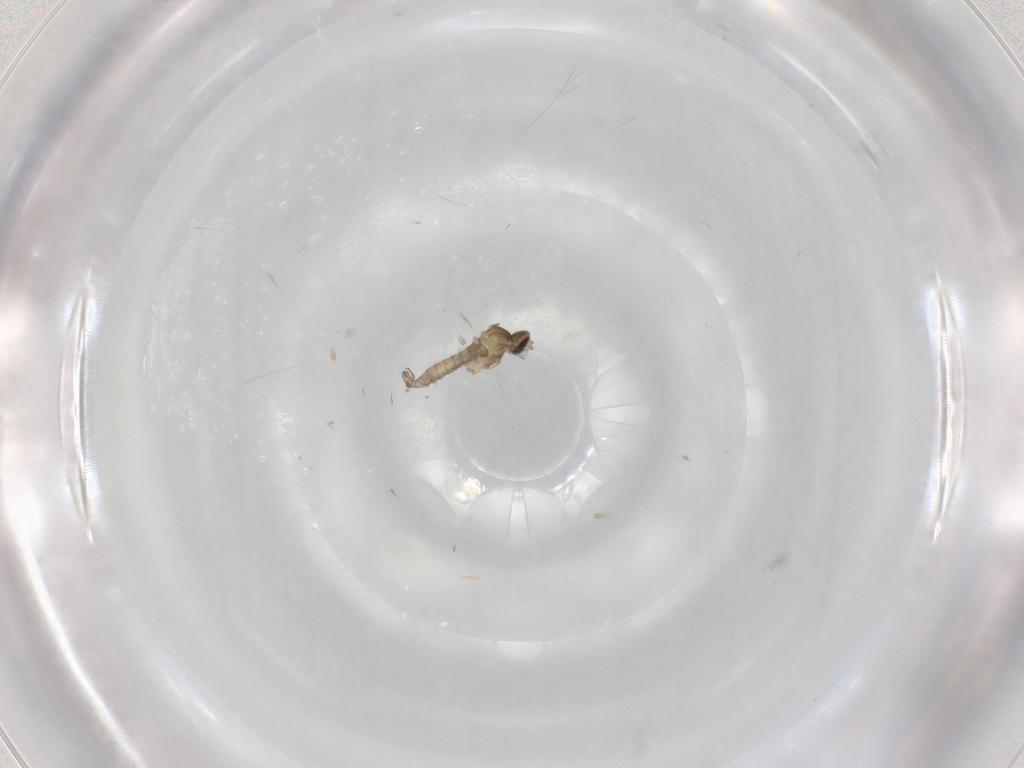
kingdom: Animalia
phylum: Arthropoda
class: Insecta
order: Diptera
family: Cecidomyiidae
